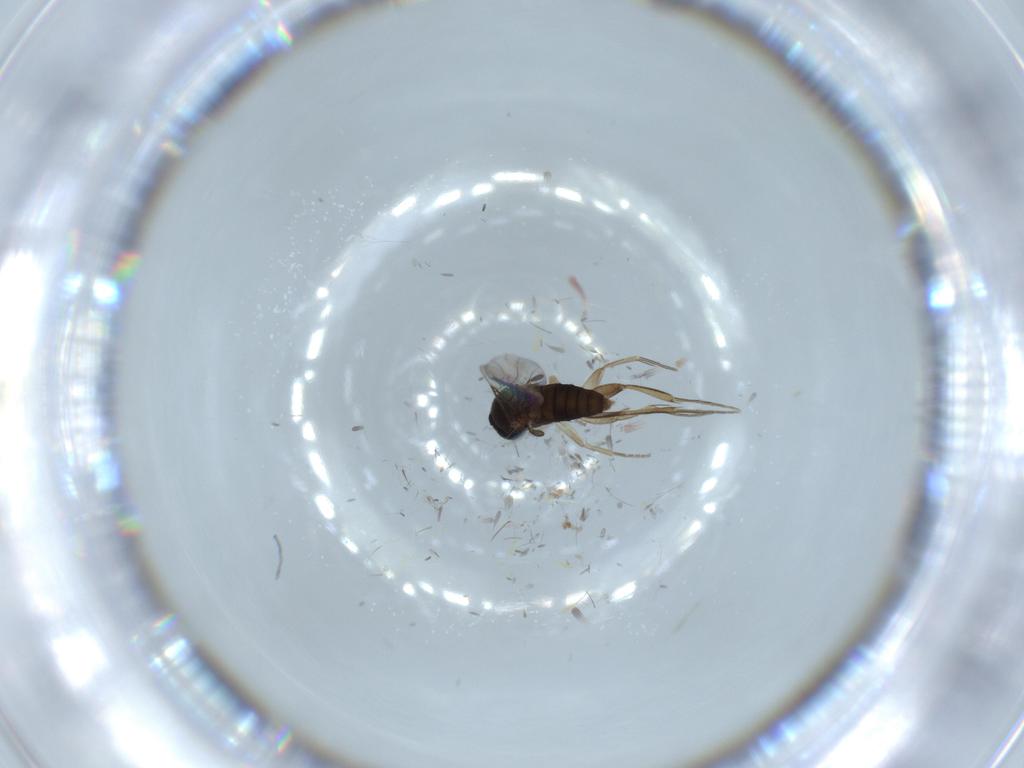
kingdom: Animalia
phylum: Arthropoda
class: Insecta
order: Diptera
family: Phoridae
